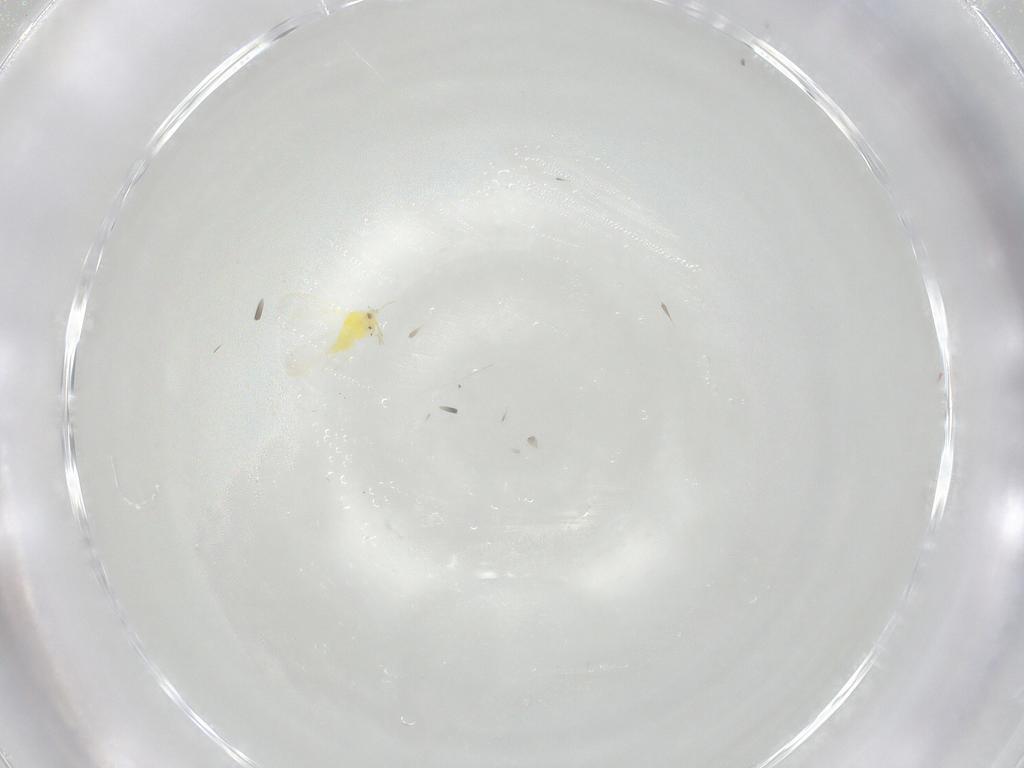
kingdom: Animalia
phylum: Arthropoda
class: Insecta
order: Hemiptera
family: Aleyrodidae
